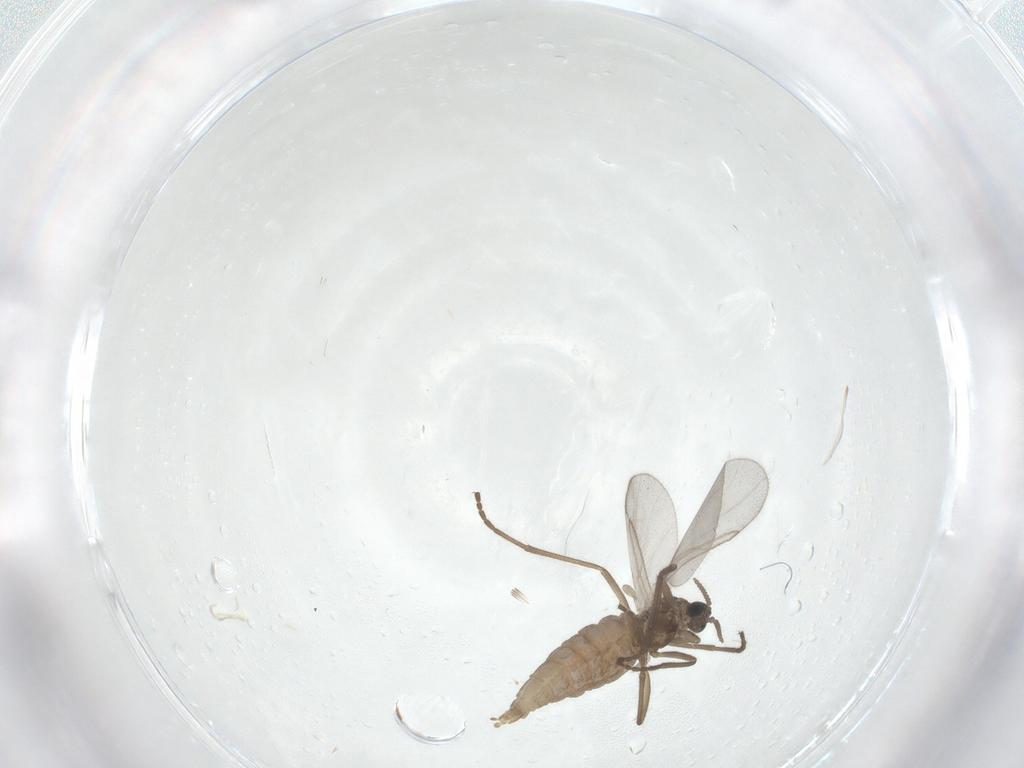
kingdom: Animalia
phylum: Arthropoda
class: Insecta
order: Diptera
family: Cecidomyiidae
